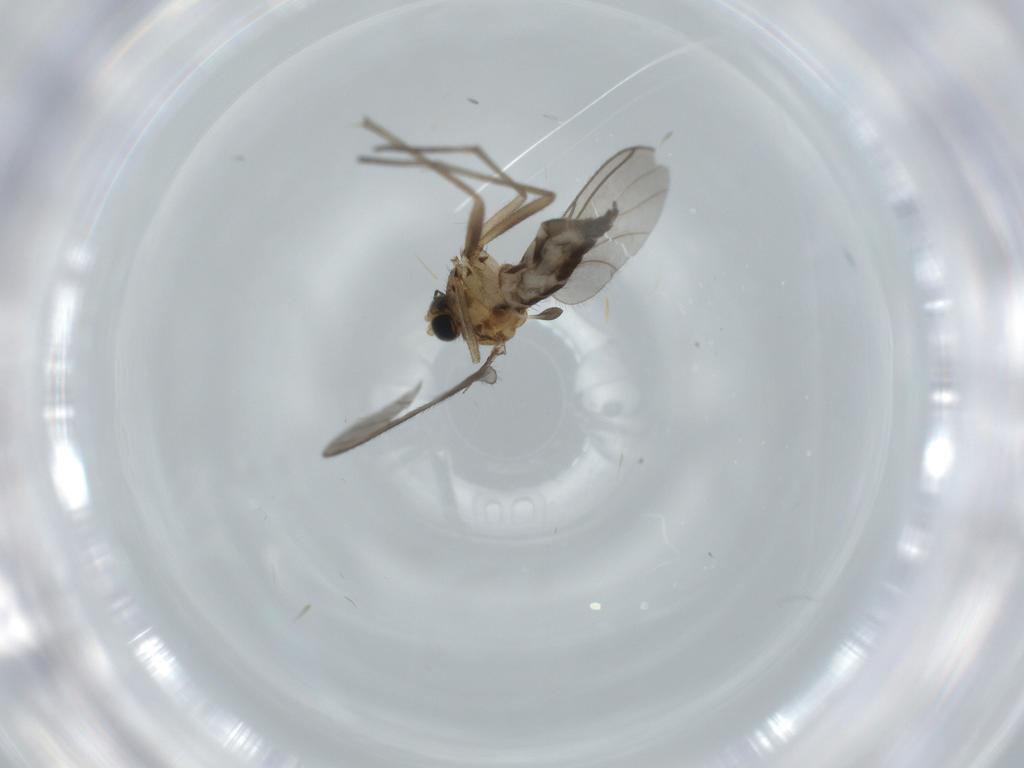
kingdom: Animalia
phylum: Arthropoda
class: Insecta
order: Diptera
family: Sciaridae
